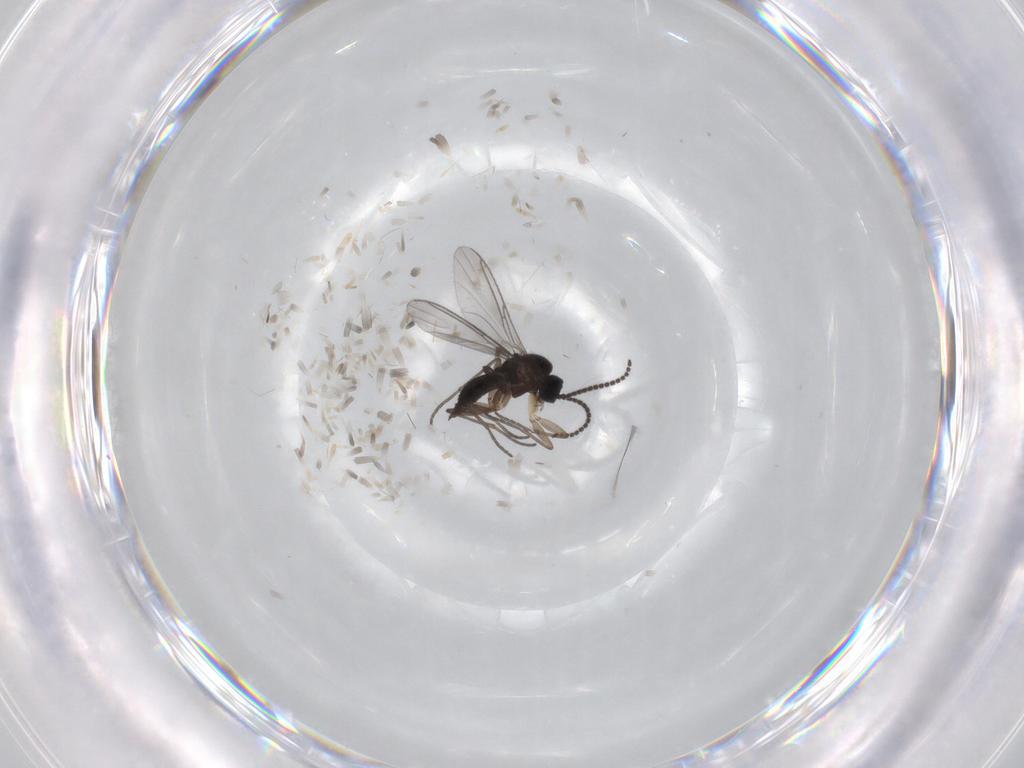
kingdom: Animalia
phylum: Arthropoda
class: Insecta
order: Diptera
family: Sciaridae
